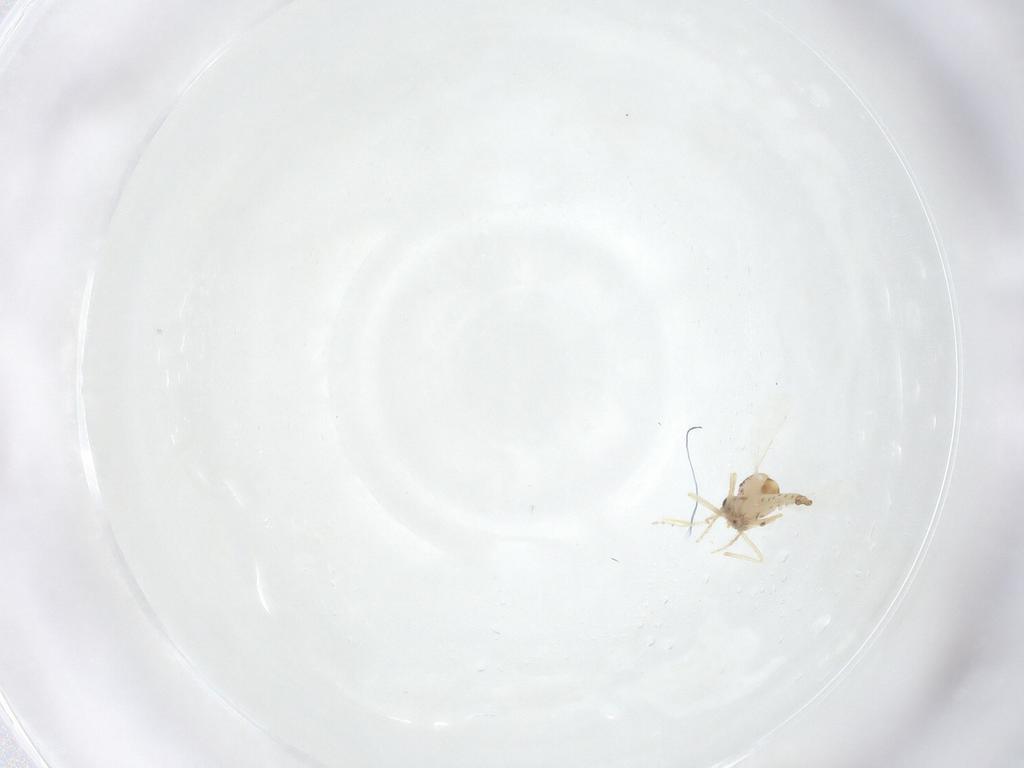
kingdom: Animalia
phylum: Arthropoda
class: Insecta
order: Diptera
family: Ceratopogonidae
